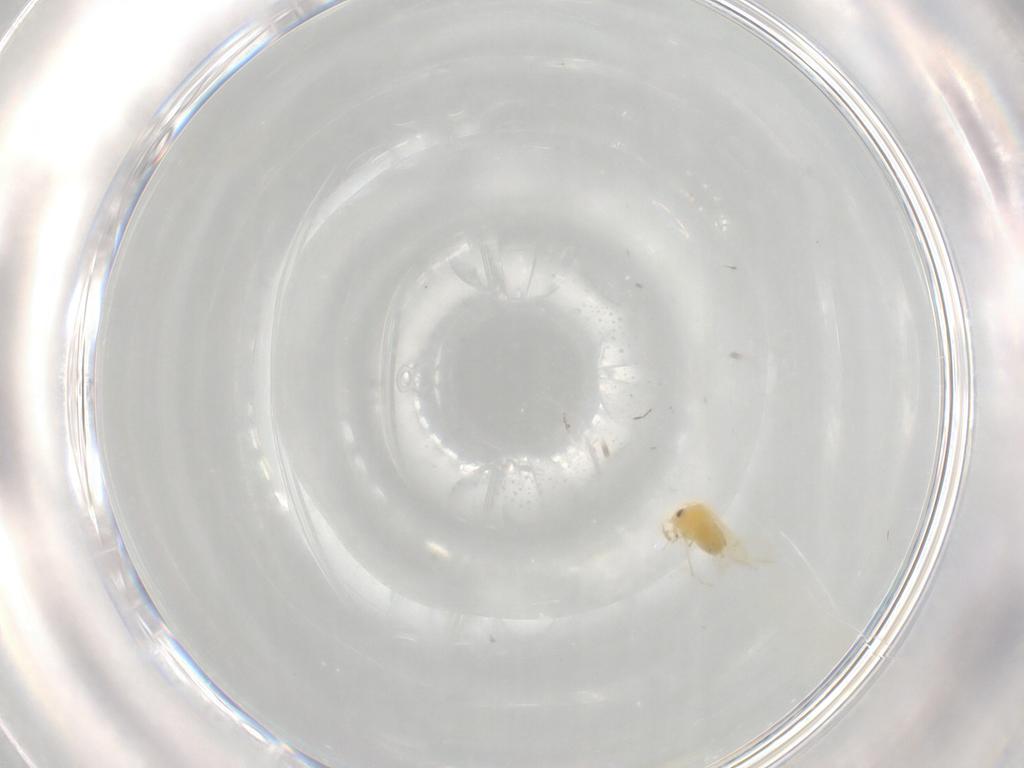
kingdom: Animalia
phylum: Arthropoda
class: Insecta
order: Hemiptera
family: Aleyrodidae
